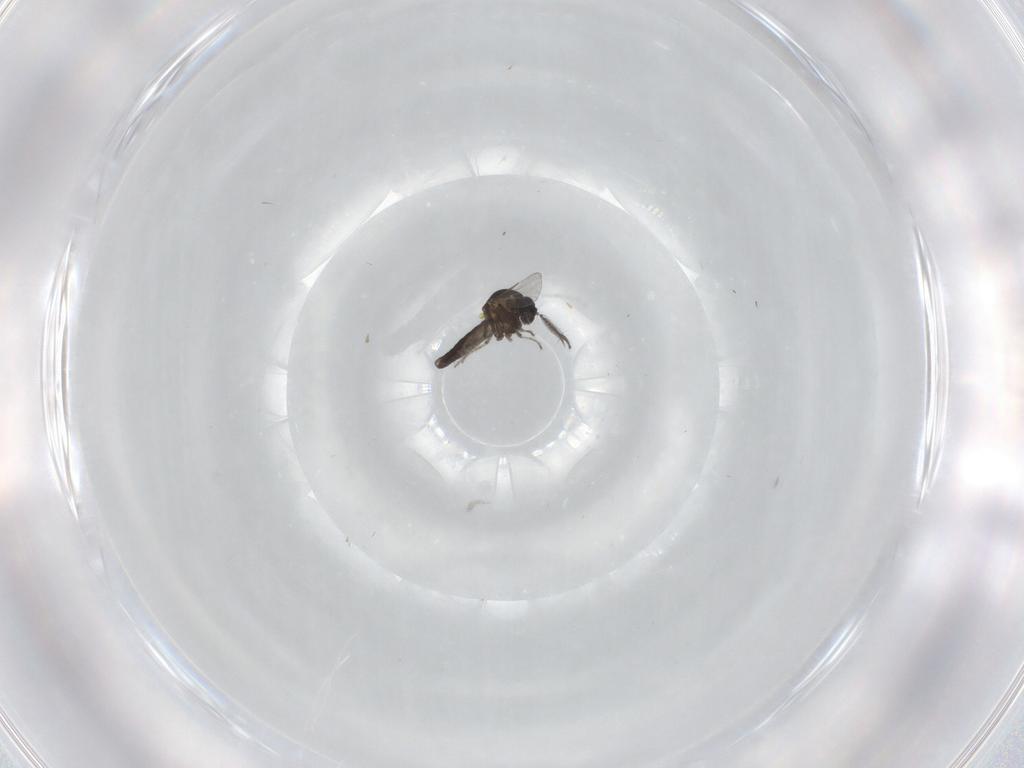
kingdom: Animalia
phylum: Arthropoda
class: Insecta
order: Diptera
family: Ceratopogonidae
